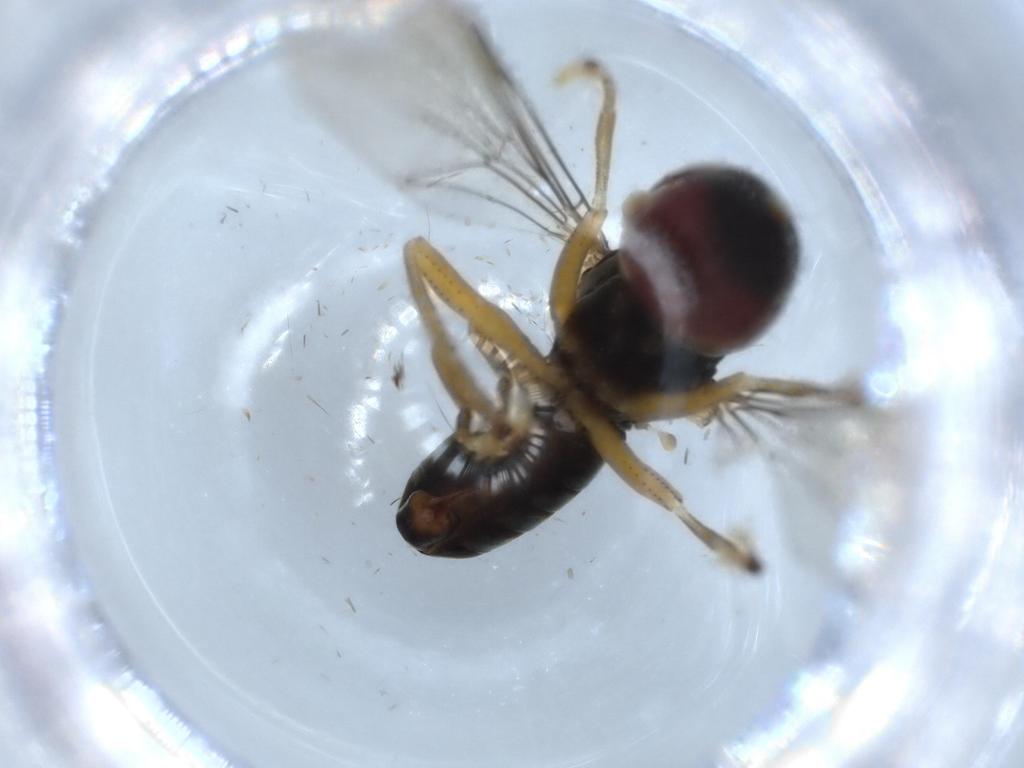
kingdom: Animalia
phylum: Arthropoda
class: Insecta
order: Diptera
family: Pipunculidae
